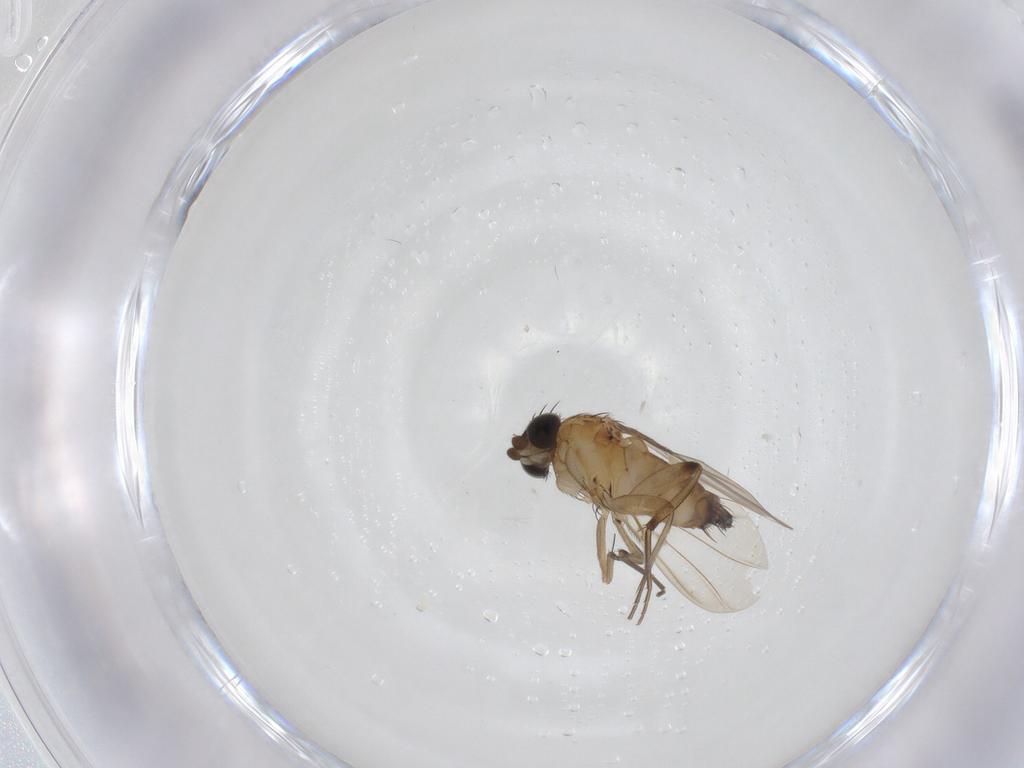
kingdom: Animalia
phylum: Arthropoda
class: Insecta
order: Diptera
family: Phoridae
